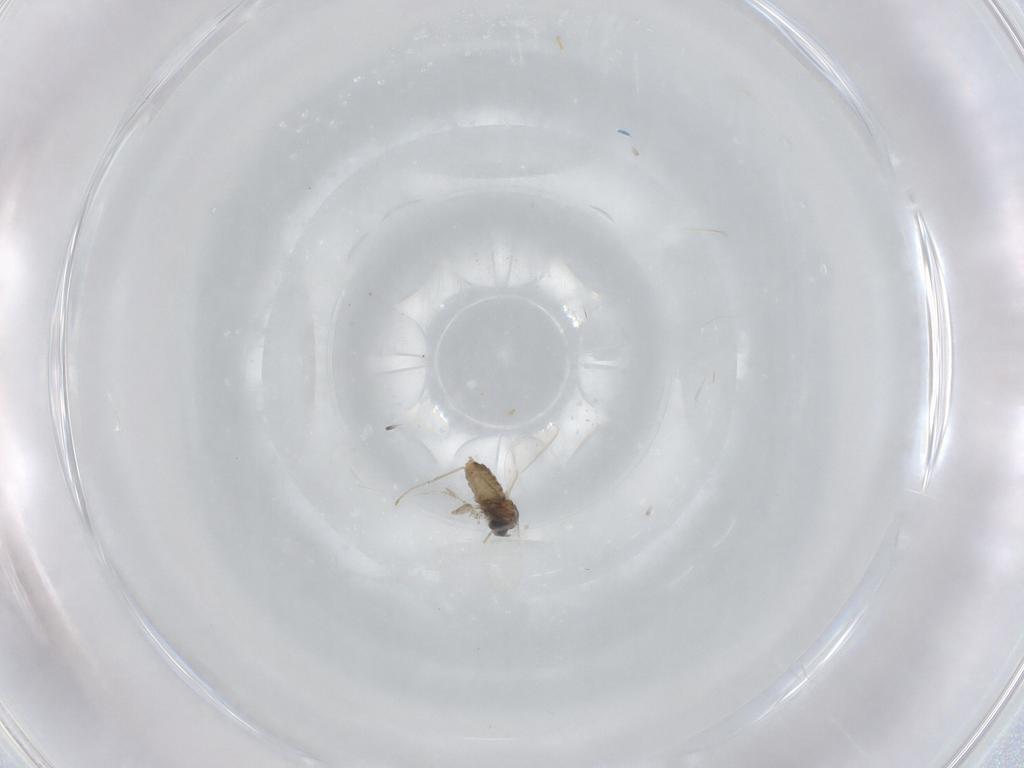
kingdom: Animalia
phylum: Arthropoda
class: Insecta
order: Diptera
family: Cecidomyiidae
